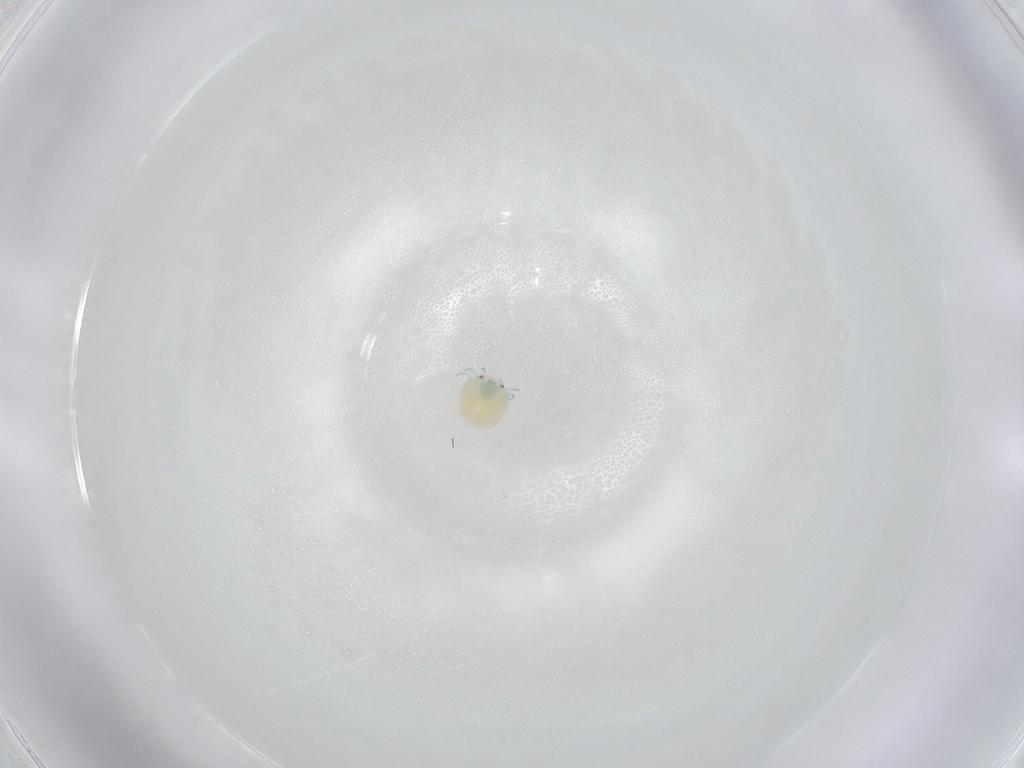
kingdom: Animalia
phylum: Arthropoda
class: Arachnida
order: Trombidiformes
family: Arrenuridae
